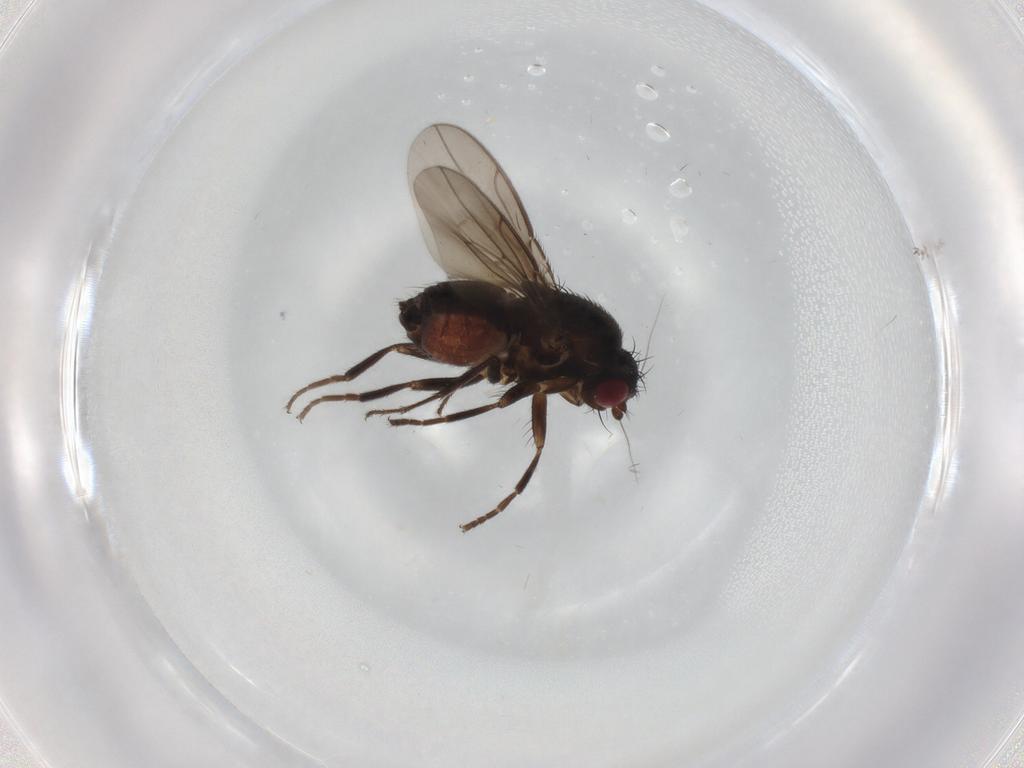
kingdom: Animalia
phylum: Arthropoda
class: Insecta
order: Diptera
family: Sphaeroceridae
